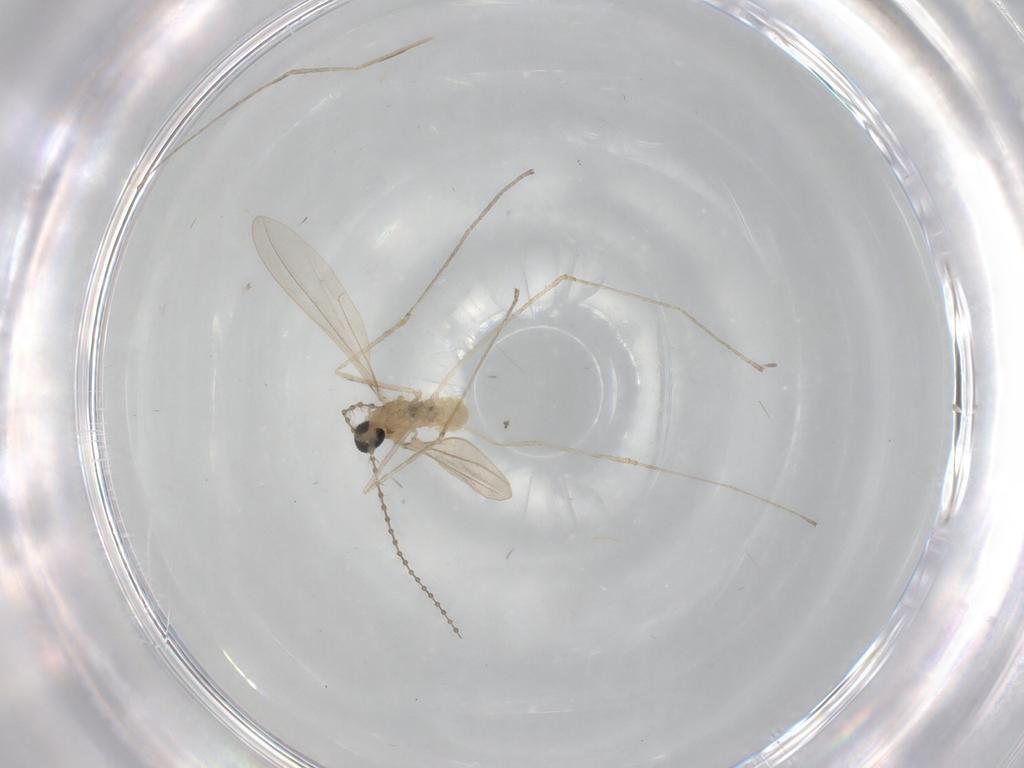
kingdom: Animalia
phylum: Arthropoda
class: Insecta
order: Diptera
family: Cecidomyiidae
